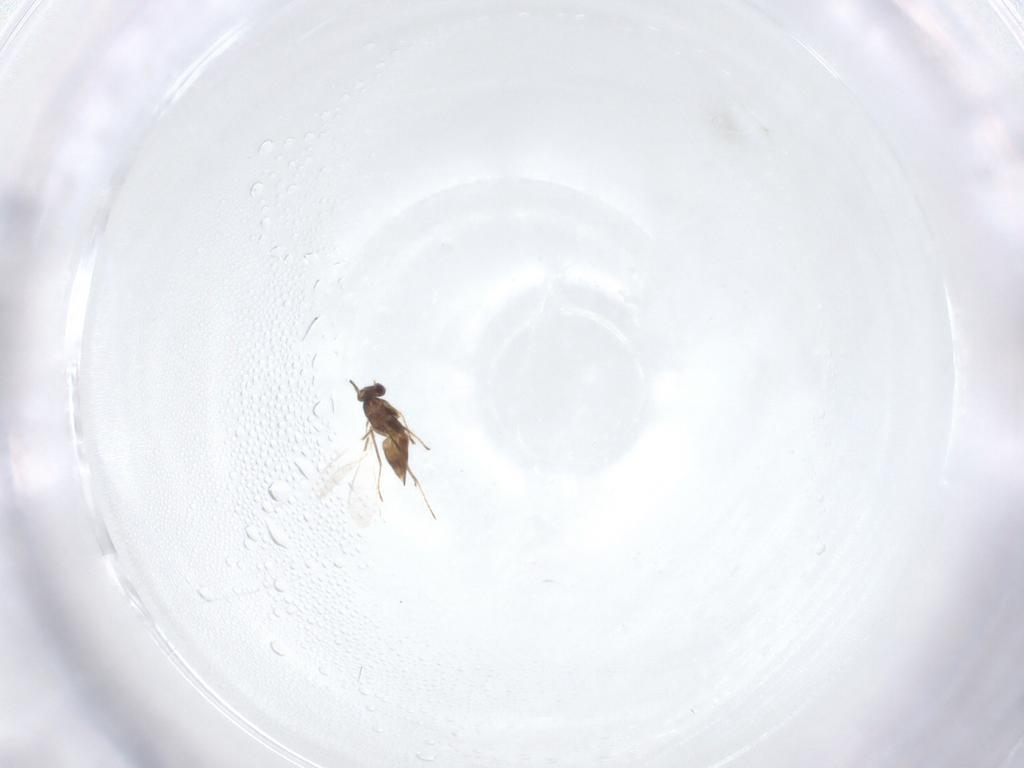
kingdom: Animalia
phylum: Arthropoda
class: Insecta
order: Hymenoptera
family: Mymaridae
